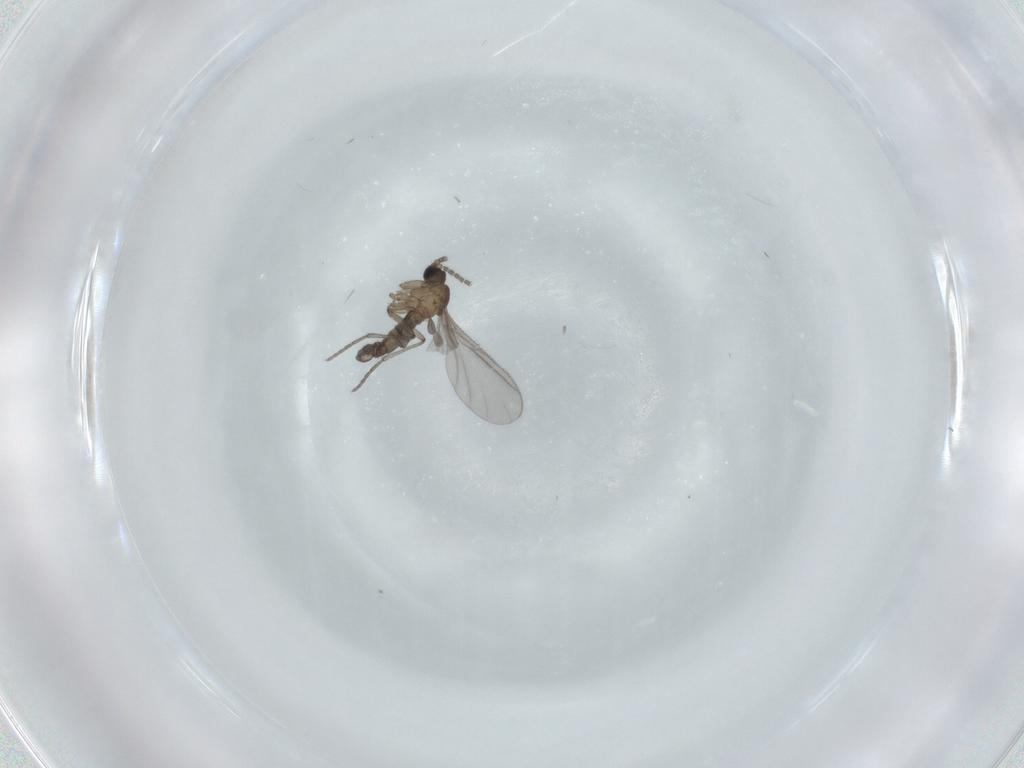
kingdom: Animalia
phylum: Arthropoda
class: Insecta
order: Diptera
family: Sciaridae
